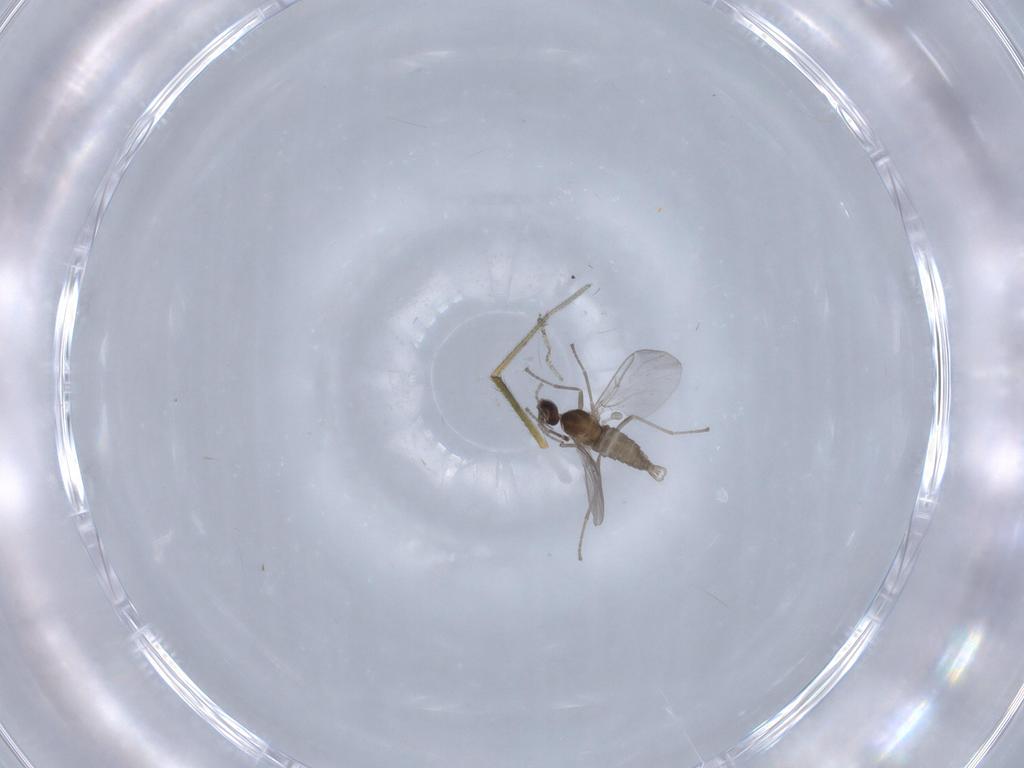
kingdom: Animalia
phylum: Arthropoda
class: Insecta
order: Diptera
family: Cecidomyiidae
